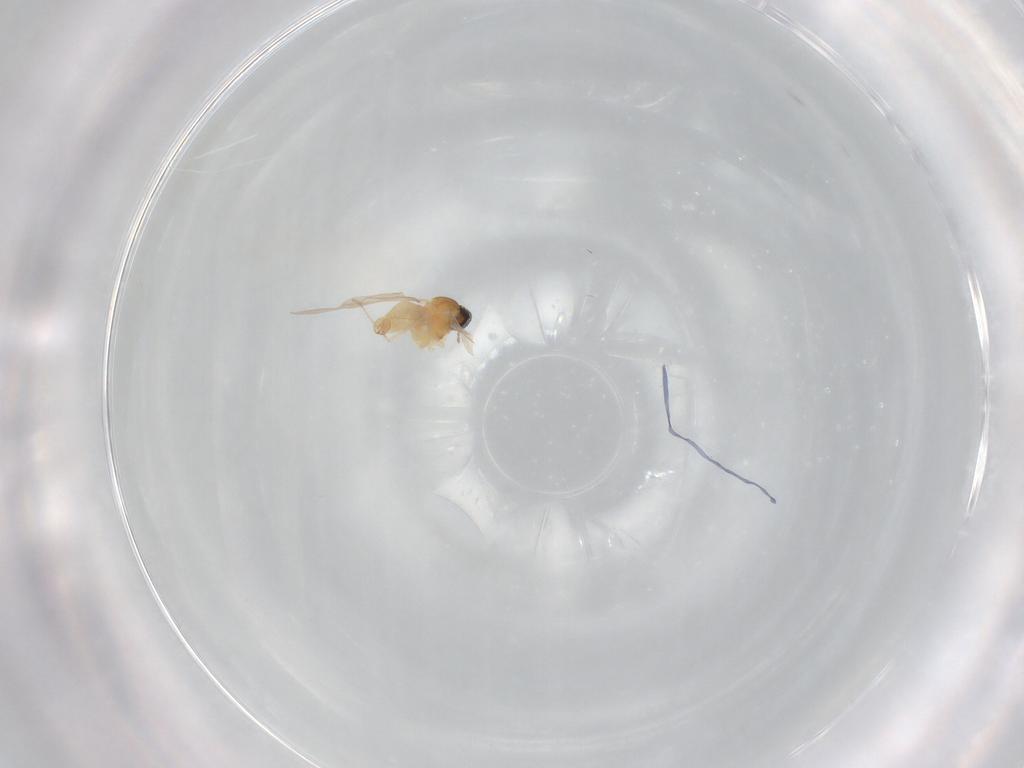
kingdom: Animalia
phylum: Arthropoda
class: Insecta
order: Diptera
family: Cecidomyiidae
